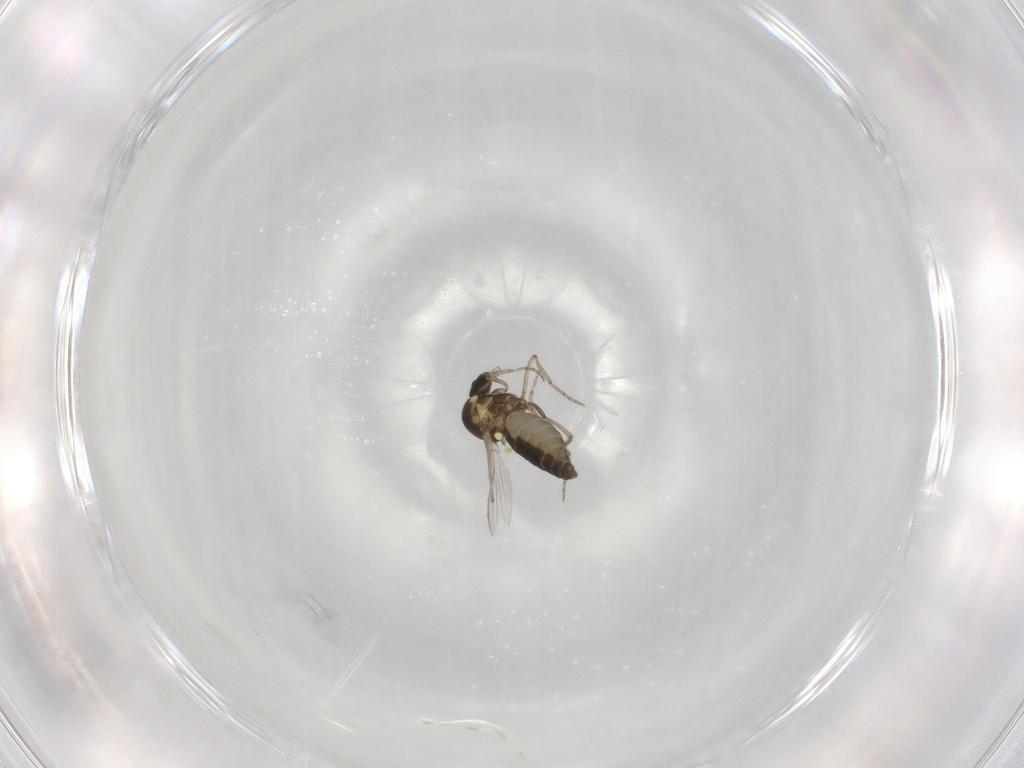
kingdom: Animalia
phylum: Arthropoda
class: Insecta
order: Diptera
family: Ceratopogonidae
